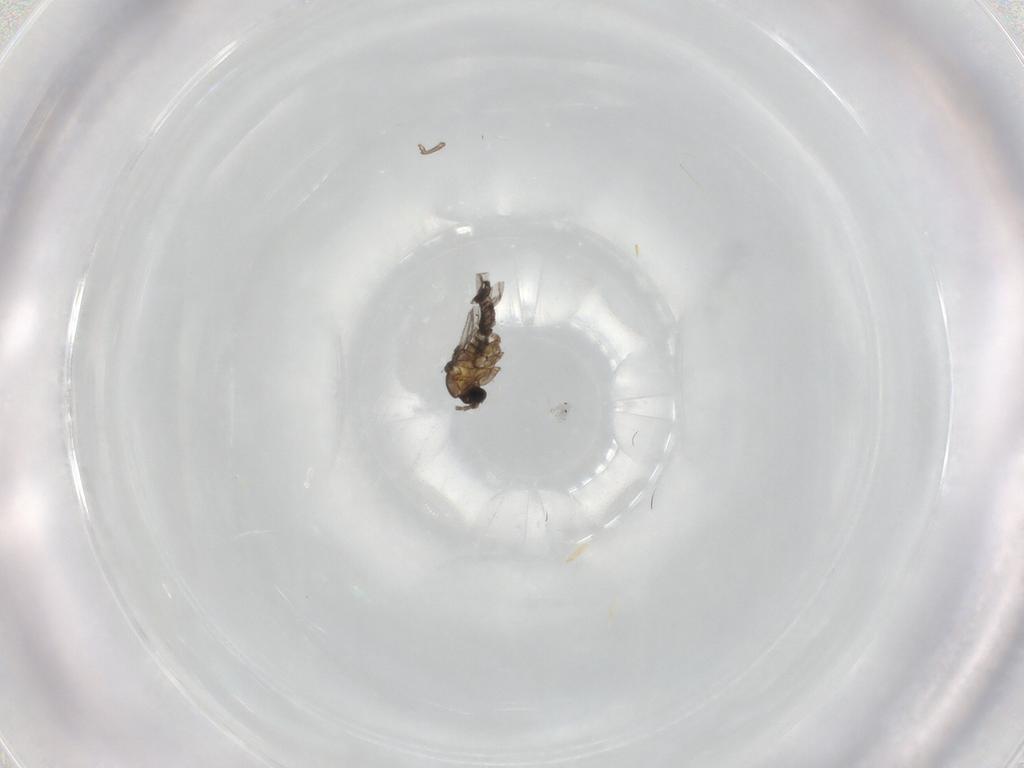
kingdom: Animalia
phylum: Arthropoda
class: Insecta
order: Diptera
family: Sciaridae
